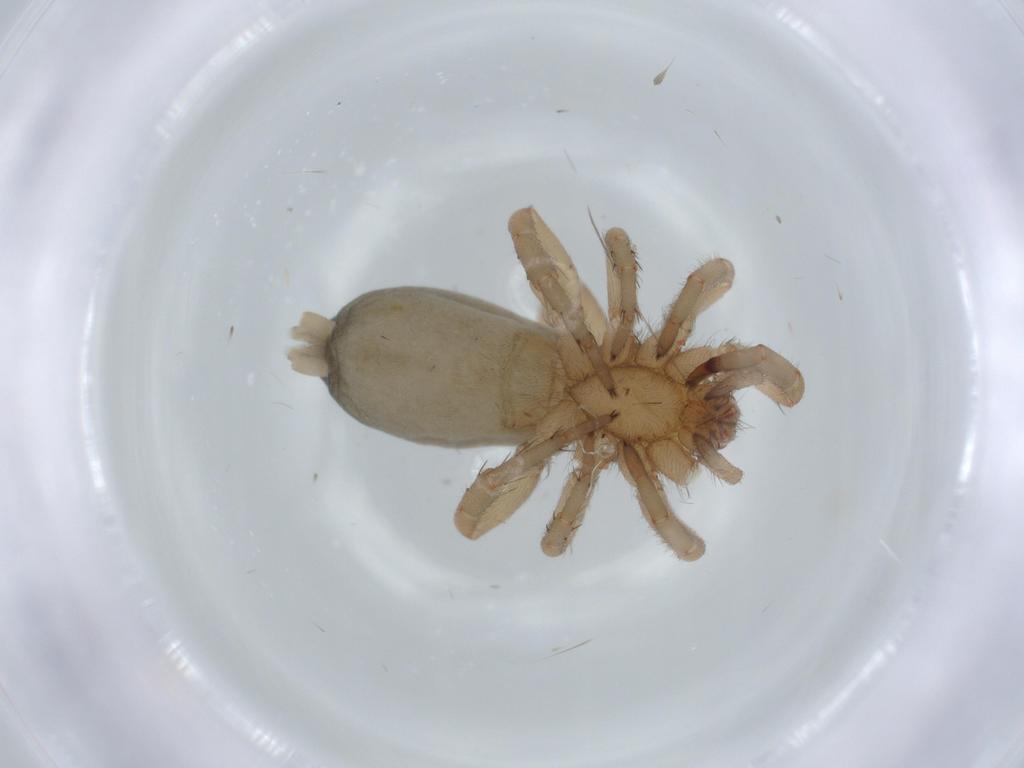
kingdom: Animalia
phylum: Arthropoda
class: Arachnida
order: Araneae
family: Gnaphosidae
